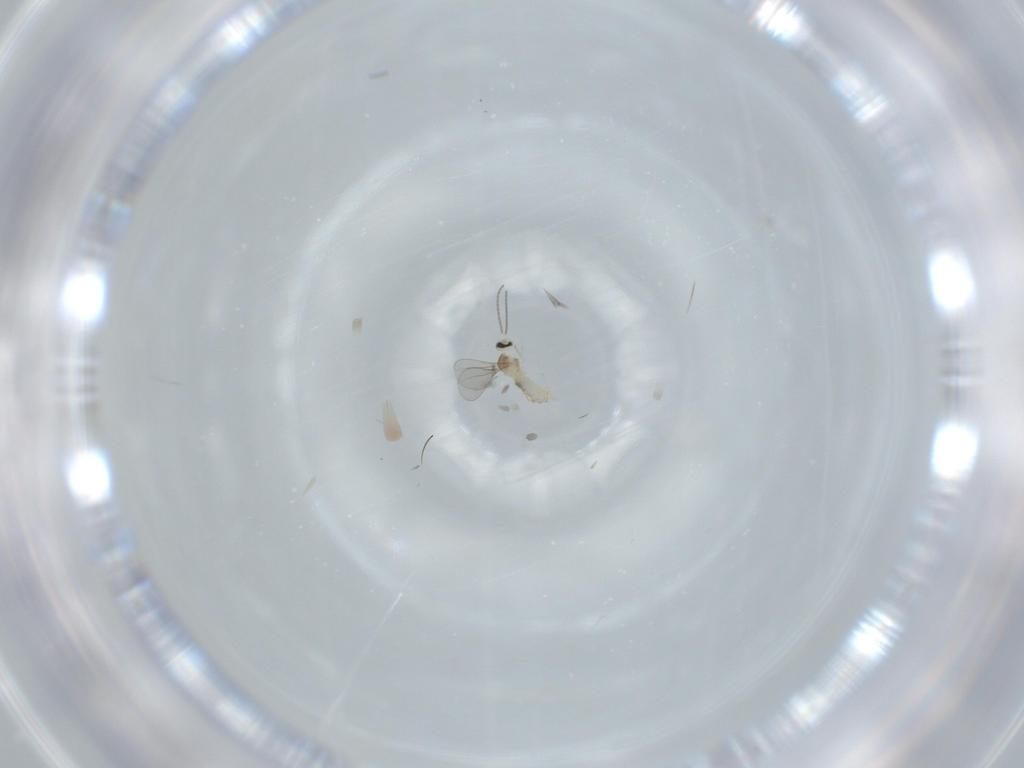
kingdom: Animalia
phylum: Arthropoda
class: Insecta
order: Diptera
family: Cecidomyiidae
